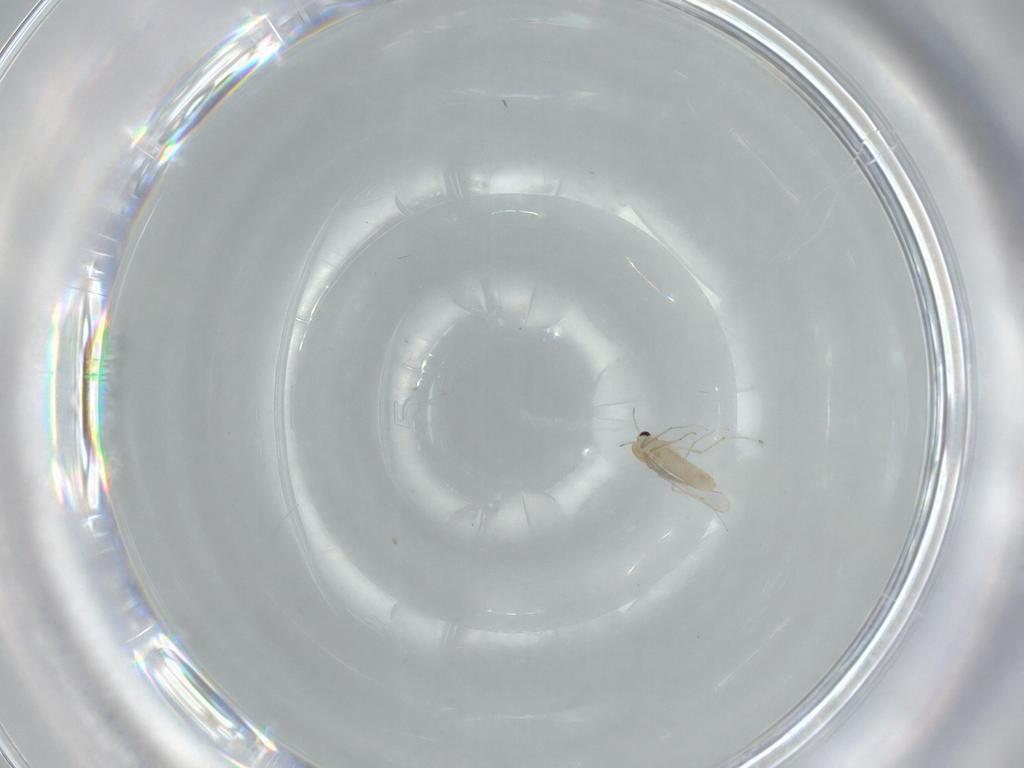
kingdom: Animalia
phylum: Arthropoda
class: Insecta
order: Diptera
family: Chironomidae
